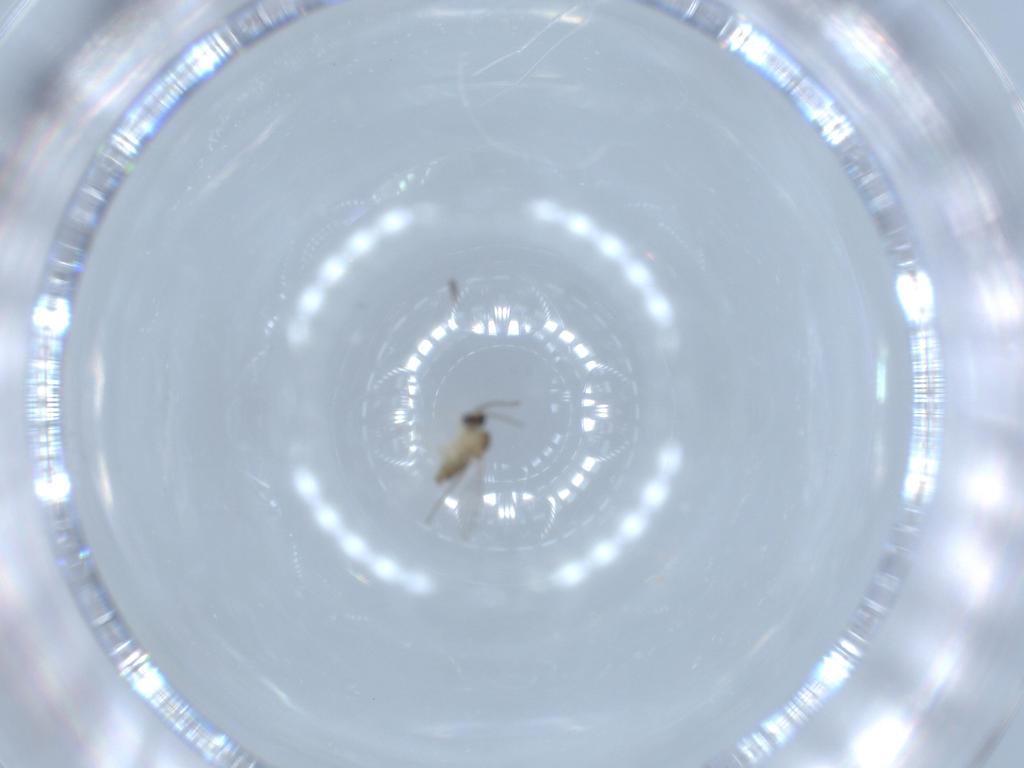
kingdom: Animalia
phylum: Arthropoda
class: Insecta
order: Diptera
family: Cecidomyiidae
